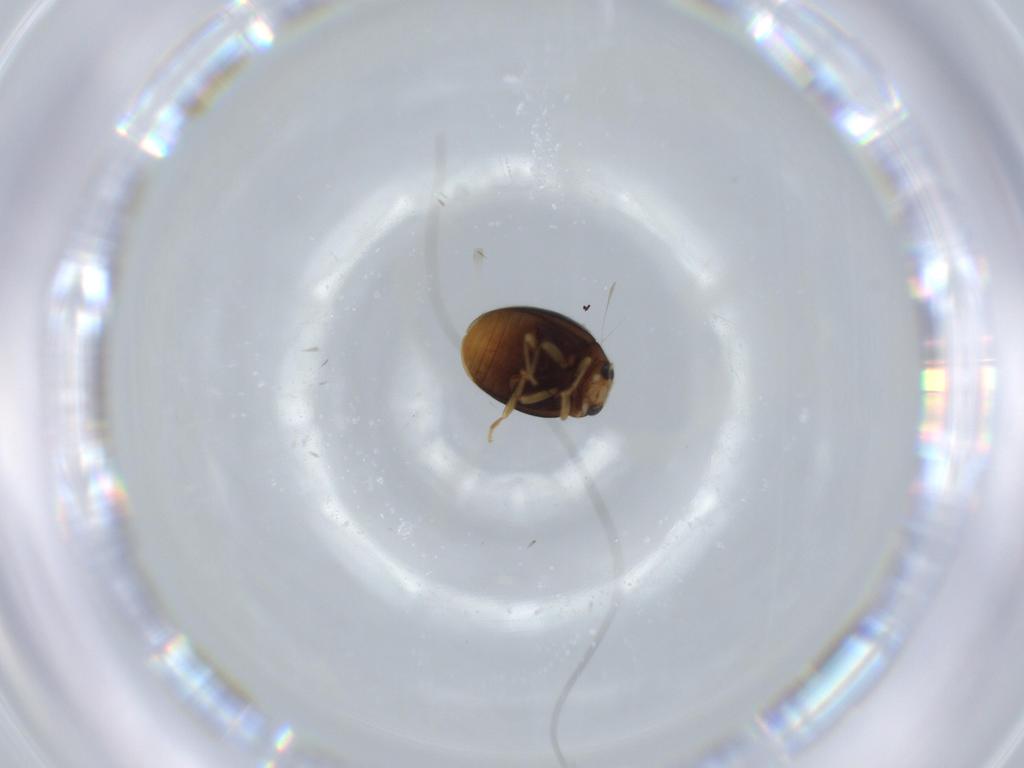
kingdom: Animalia
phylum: Arthropoda
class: Insecta
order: Coleoptera
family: Coccinellidae
